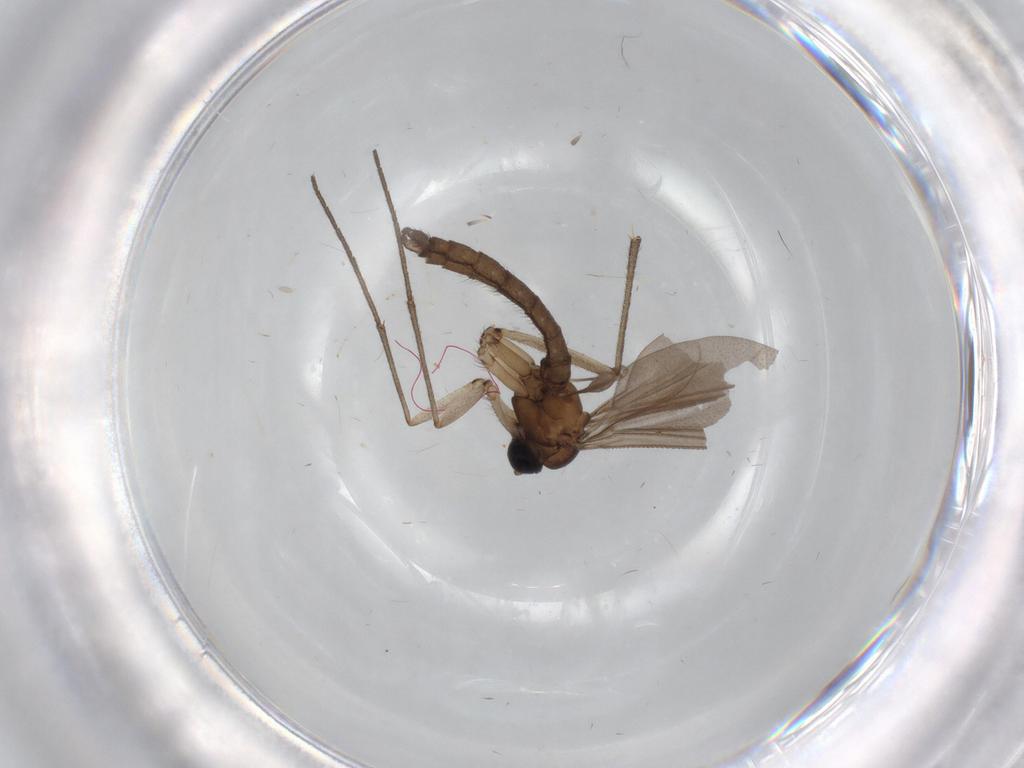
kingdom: Animalia
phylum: Arthropoda
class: Insecta
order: Diptera
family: Sciaridae
